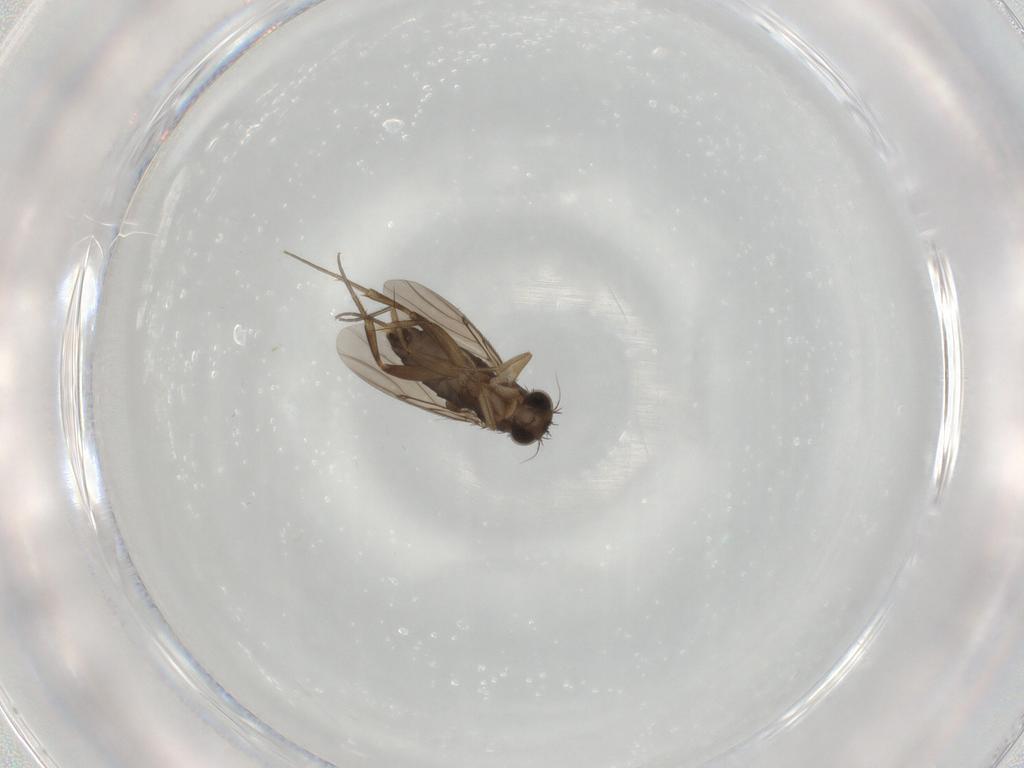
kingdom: Animalia
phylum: Arthropoda
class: Insecta
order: Diptera
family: Phoridae
